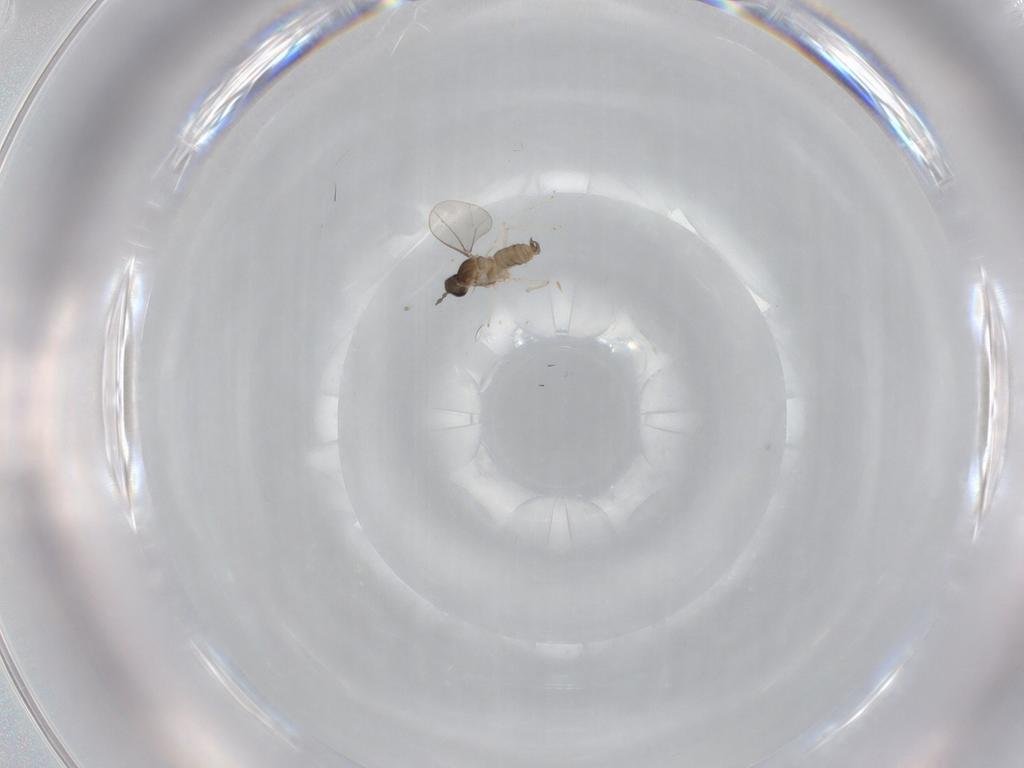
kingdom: Animalia
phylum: Arthropoda
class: Insecta
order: Diptera
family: Cecidomyiidae
